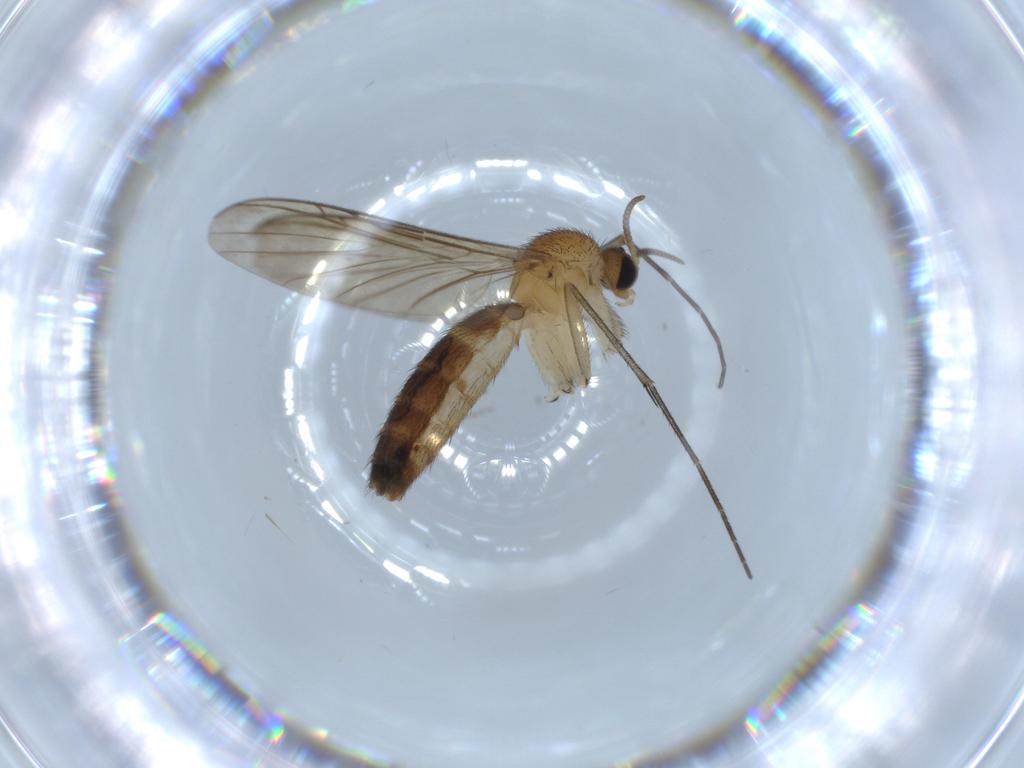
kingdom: Animalia
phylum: Arthropoda
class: Insecta
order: Diptera
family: Keroplatidae
